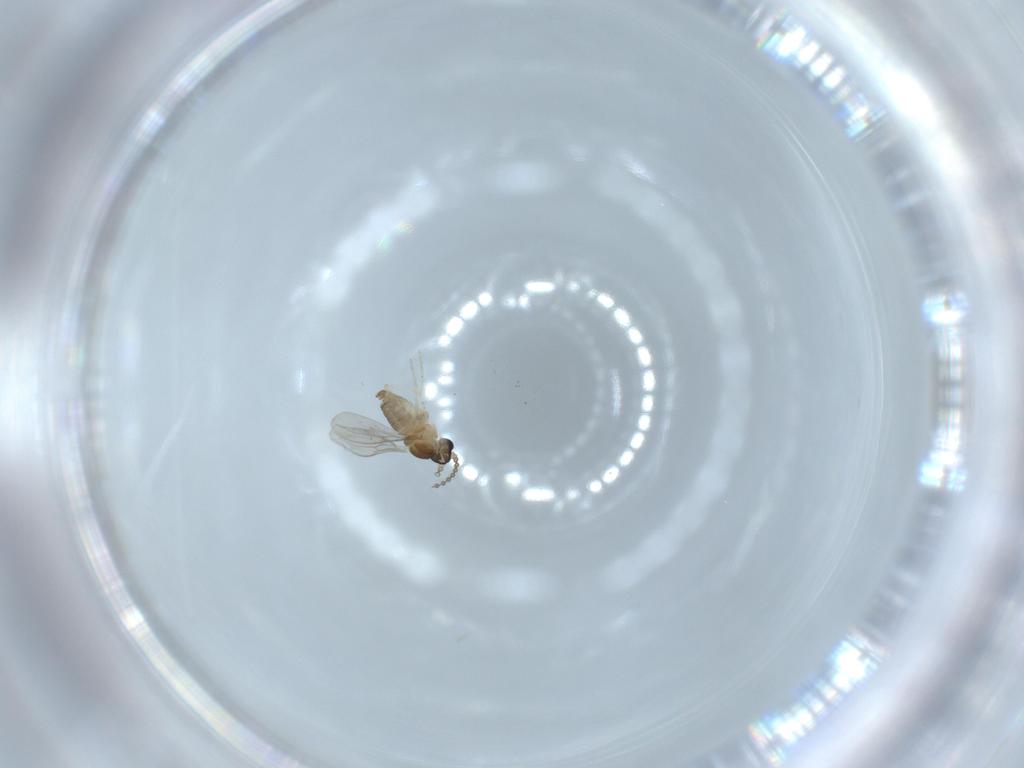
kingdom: Animalia
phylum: Arthropoda
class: Insecta
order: Diptera
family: Cecidomyiidae
